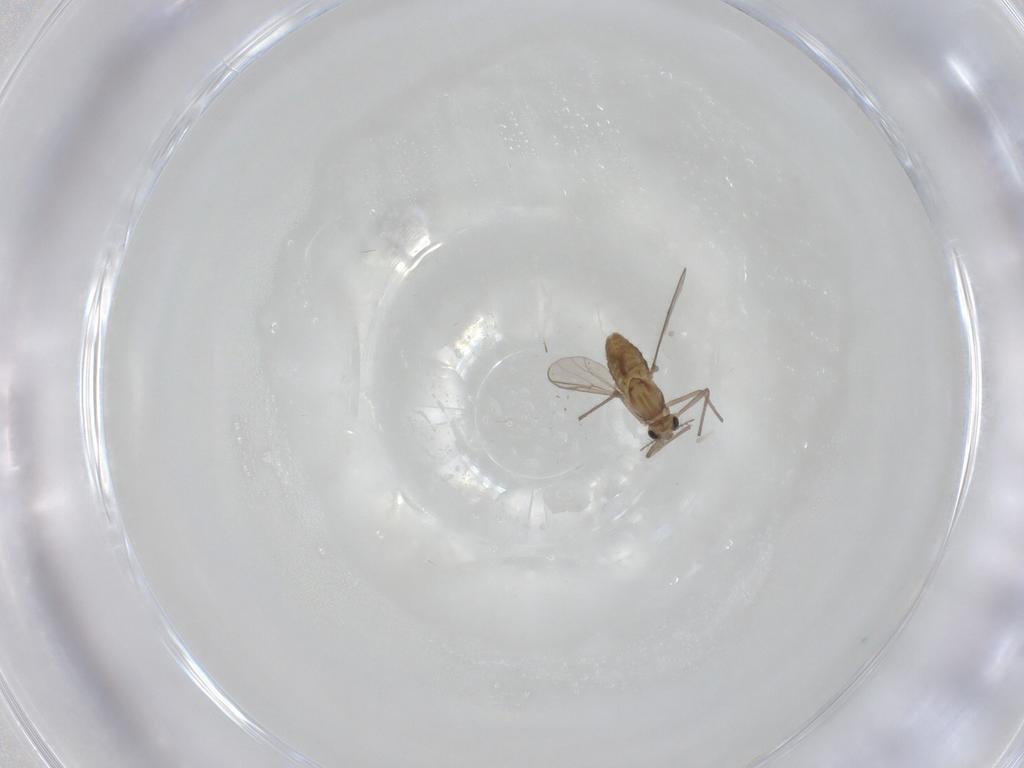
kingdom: Animalia
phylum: Arthropoda
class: Insecta
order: Diptera
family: Chironomidae
